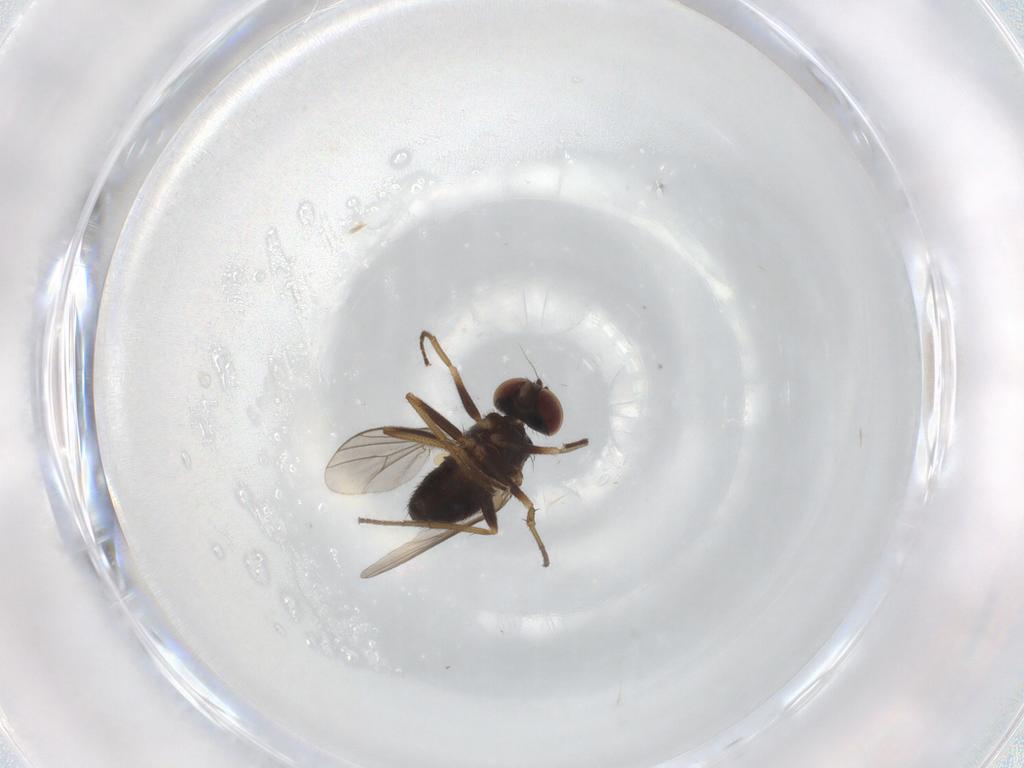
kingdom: Animalia
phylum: Arthropoda
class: Insecta
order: Diptera
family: Dolichopodidae
